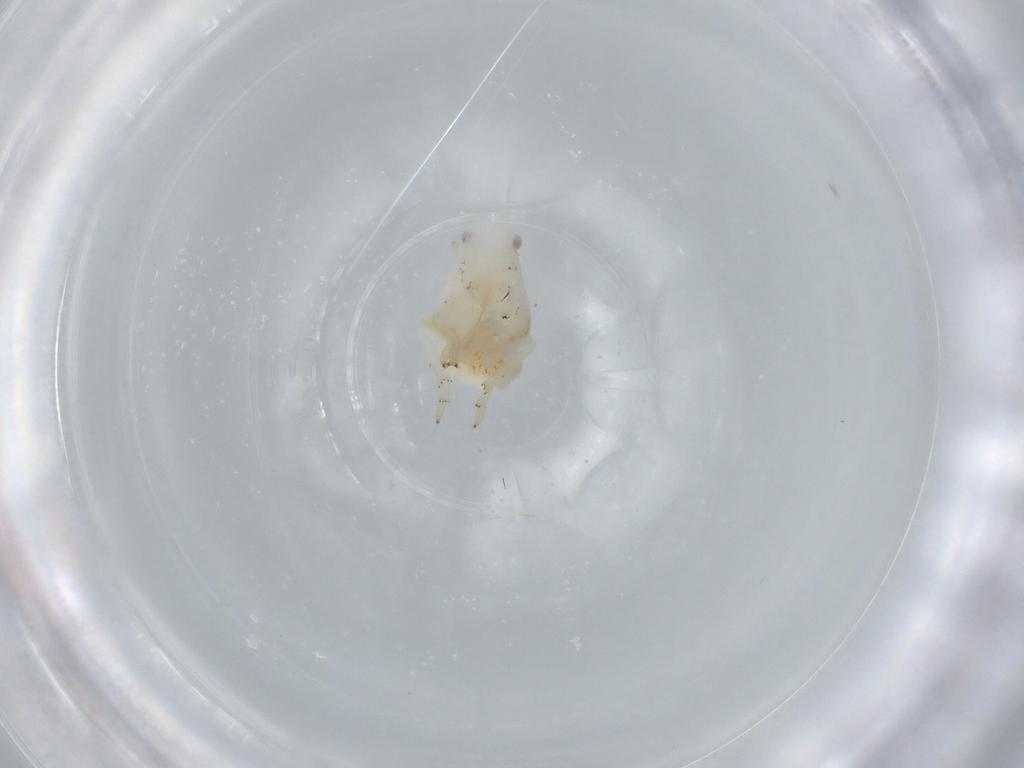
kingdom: Animalia
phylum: Arthropoda
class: Insecta
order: Hemiptera
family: Flatidae
